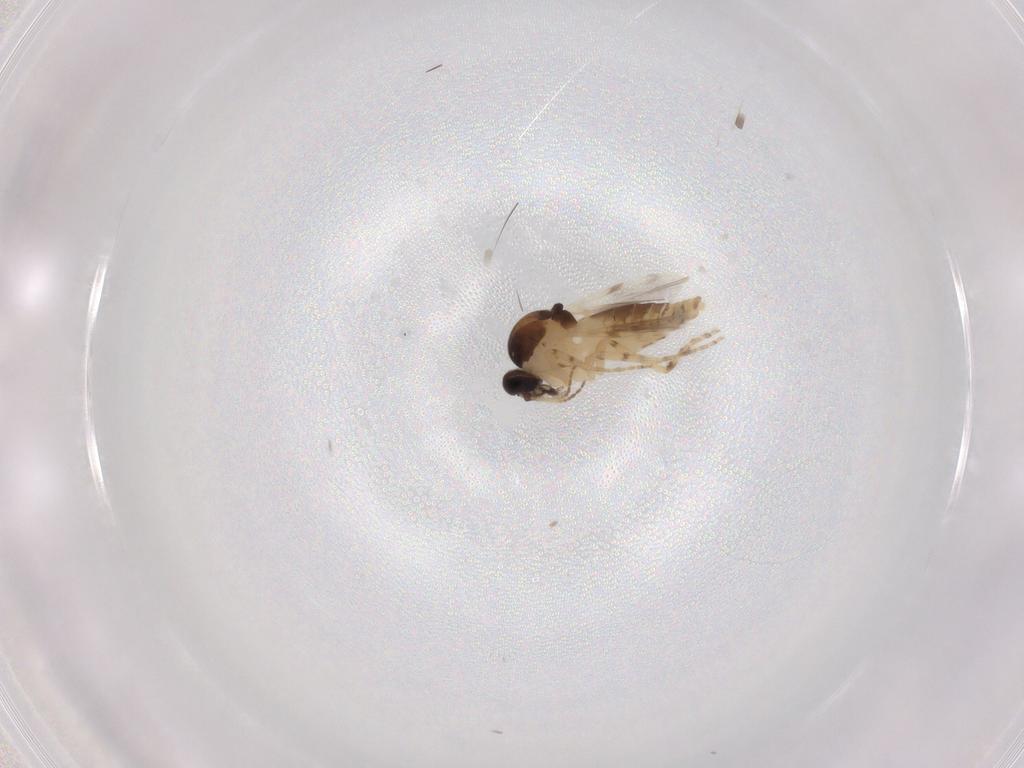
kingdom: Animalia
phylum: Arthropoda
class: Insecta
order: Diptera
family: Ceratopogonidae
